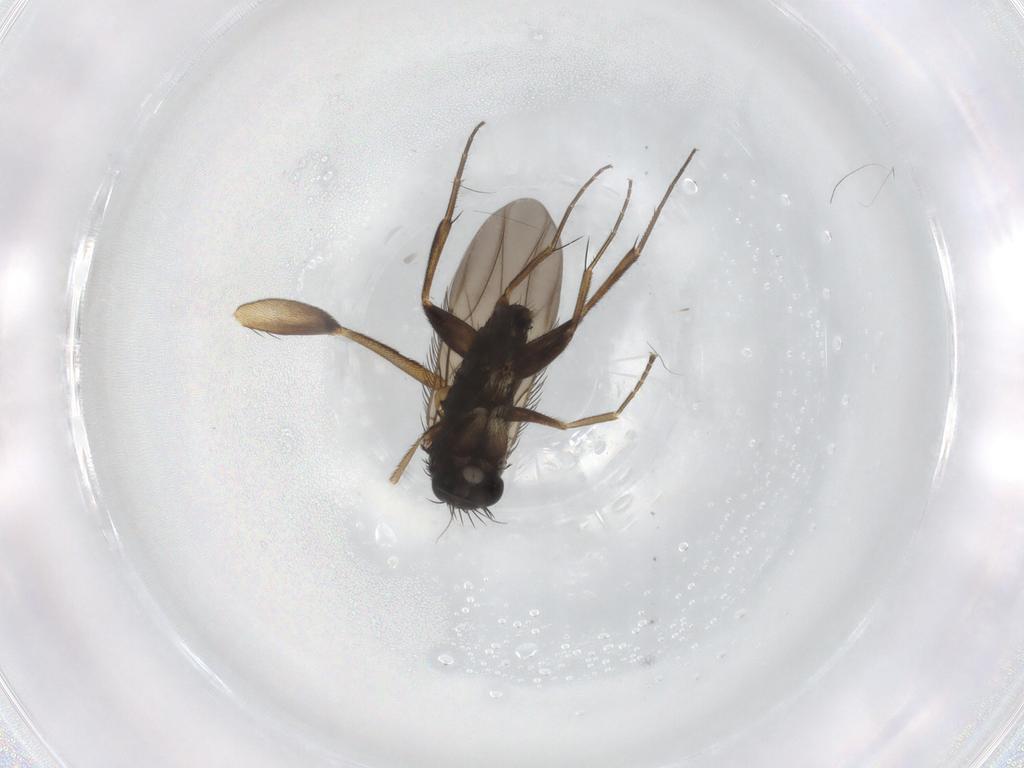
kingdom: Animalia
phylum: Arthropoda
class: Insecta
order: Diptera
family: Phoridae
